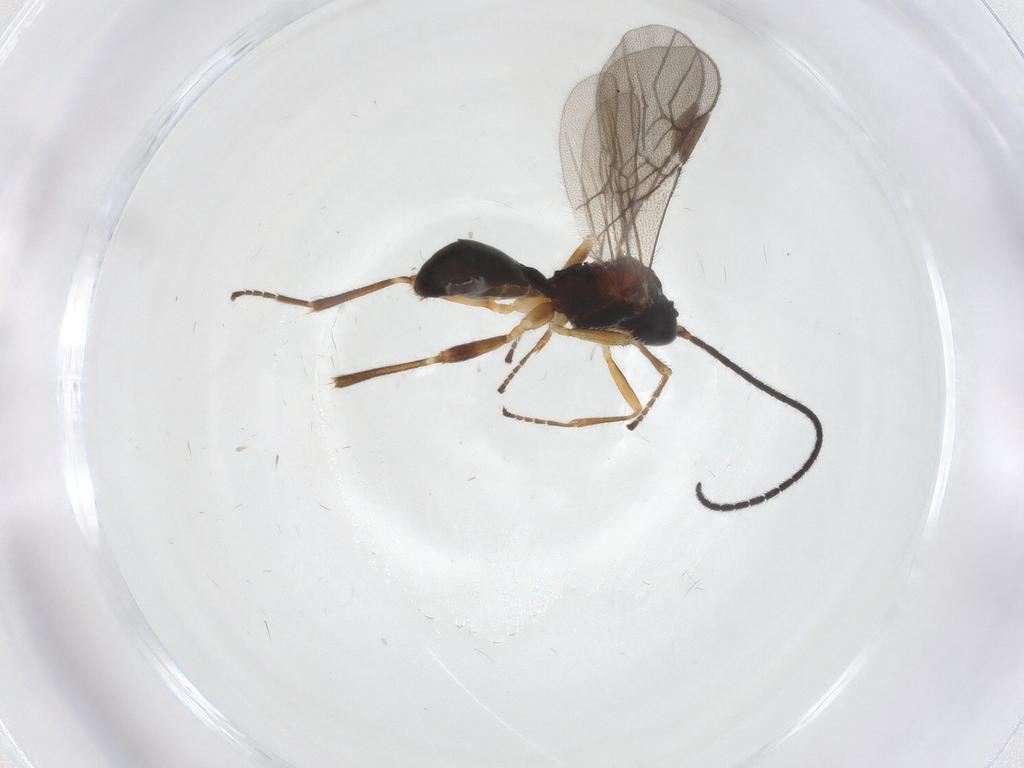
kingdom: Animalia
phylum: Arthropoda
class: Insecta
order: Hymenoptera
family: Braconidae
